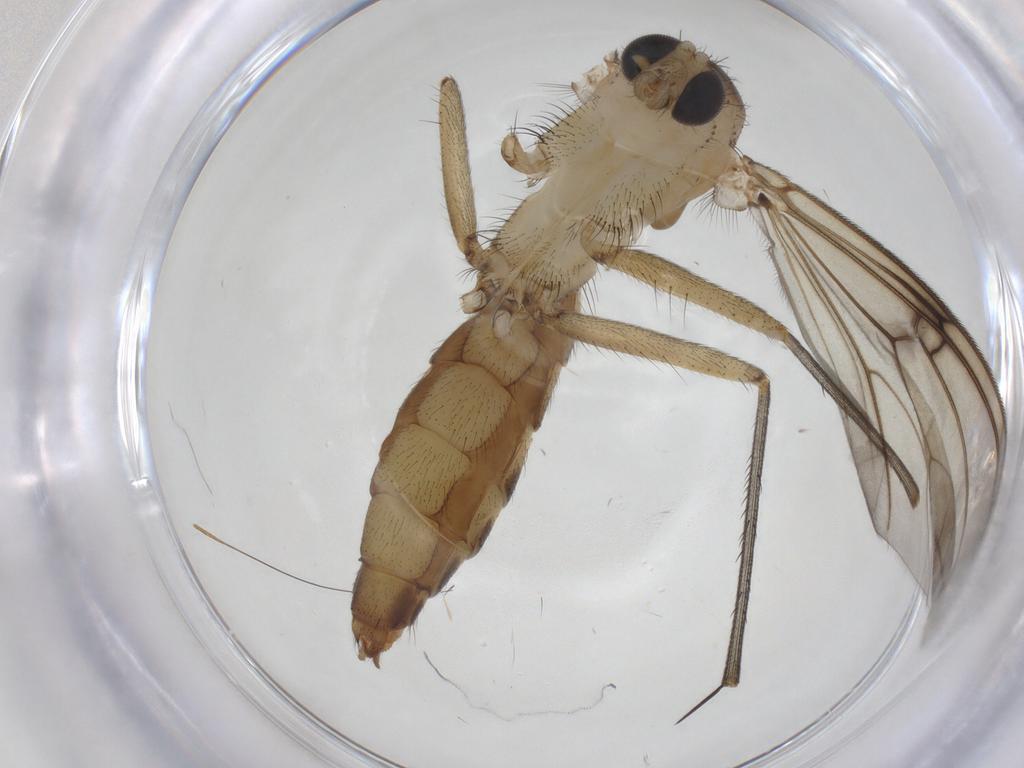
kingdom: Animalia
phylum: Arthropoda
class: Insecta
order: Diptera
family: Mycetophilidae
